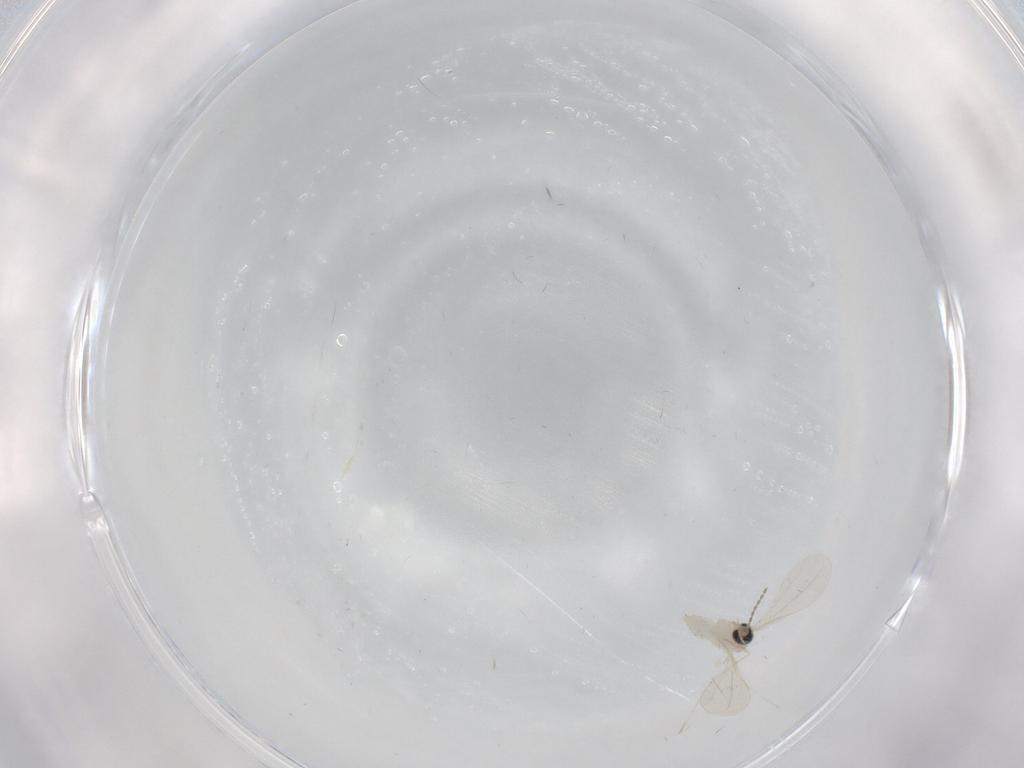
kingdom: Animalia
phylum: Arthropoda
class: Insecta
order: Diptera
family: Cecidomyiidae
